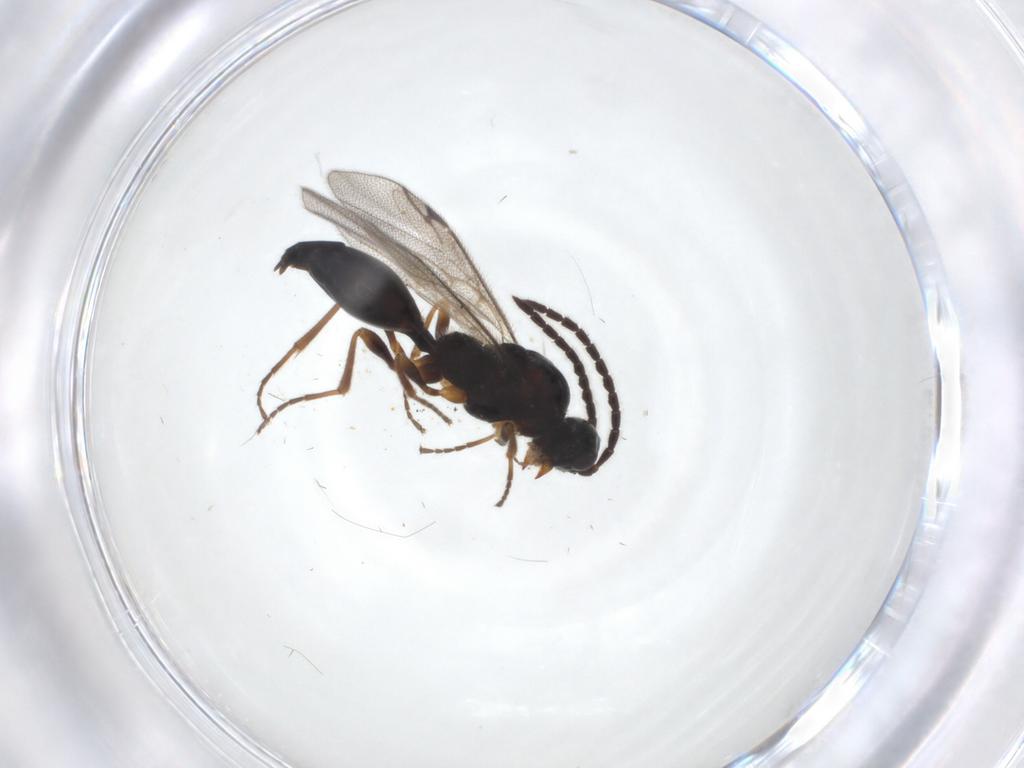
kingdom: Animalia
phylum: Arthropoda
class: Insecta
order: Hymenoptera
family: Proctotrupidae
